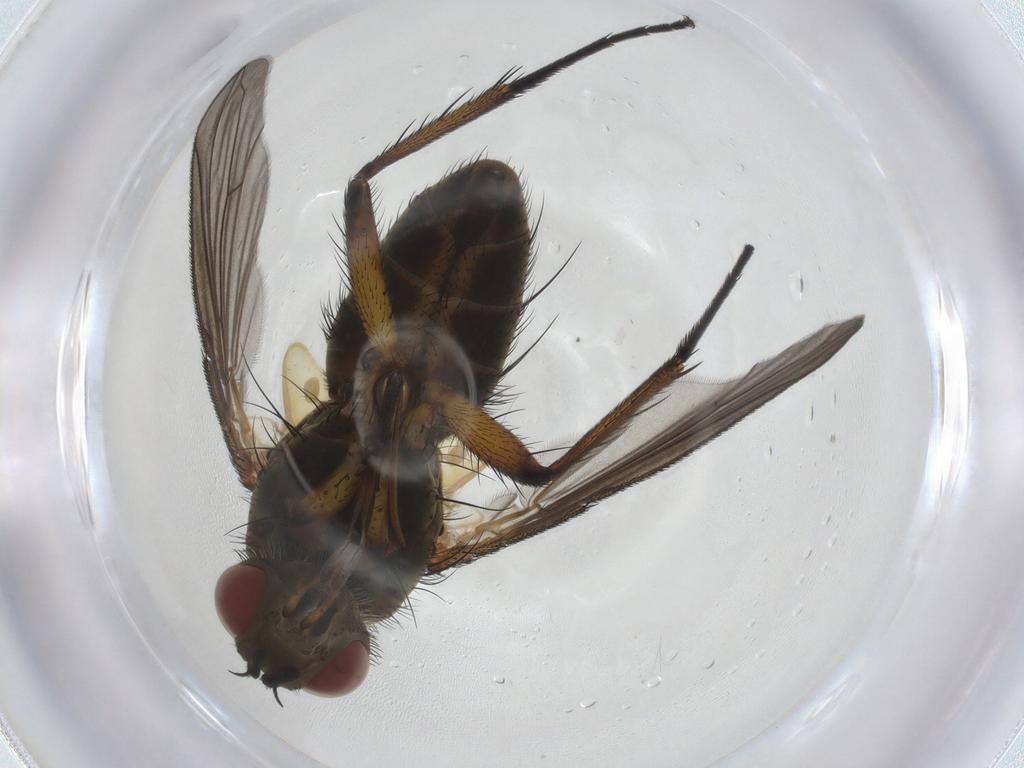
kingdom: Animalia
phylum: Arthropoda
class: Insecta
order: Diptera
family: Tachinidae
